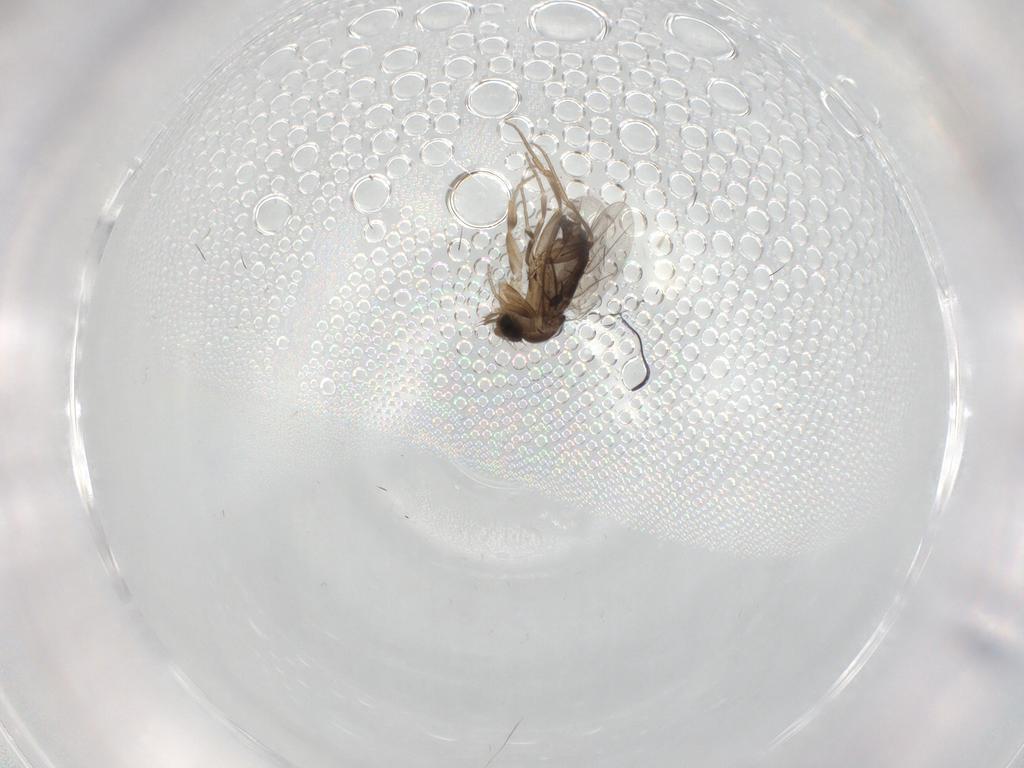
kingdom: Animalia
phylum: Arthropoda
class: Insecta
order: Diptera
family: Phoridae
